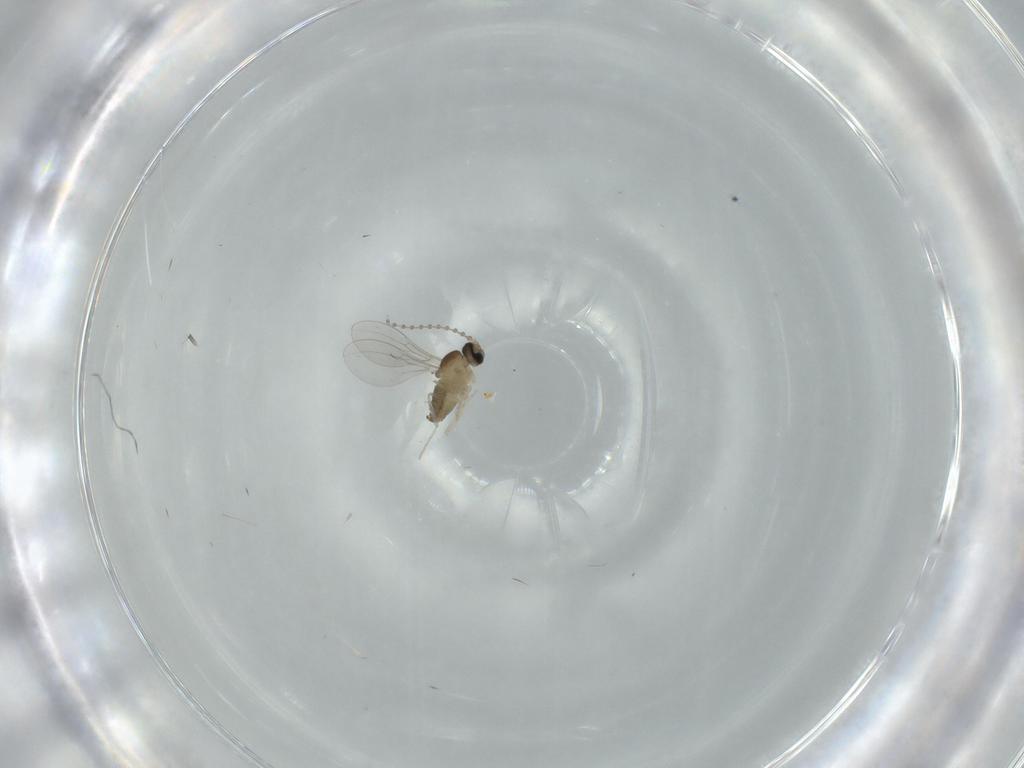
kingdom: Animalia
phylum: Arthropoda
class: Insecta
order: Diptera
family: Cecidomyiidae
